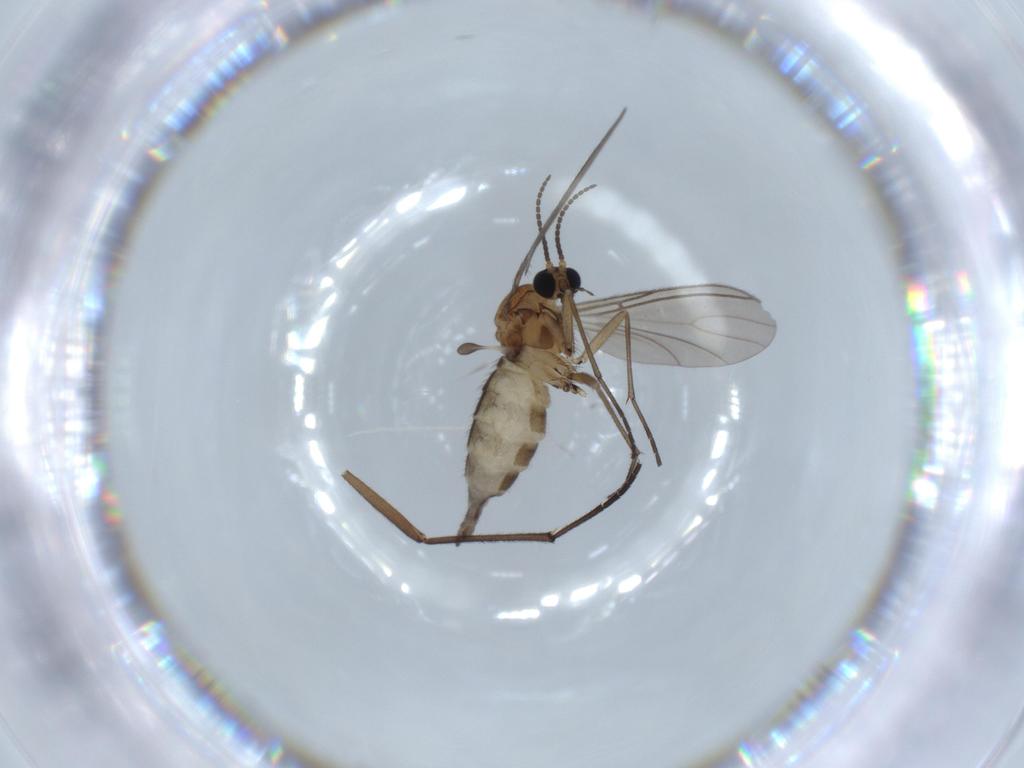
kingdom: Animalia
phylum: Arthropoda
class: Insecta
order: Diptera
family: Sciaridae
